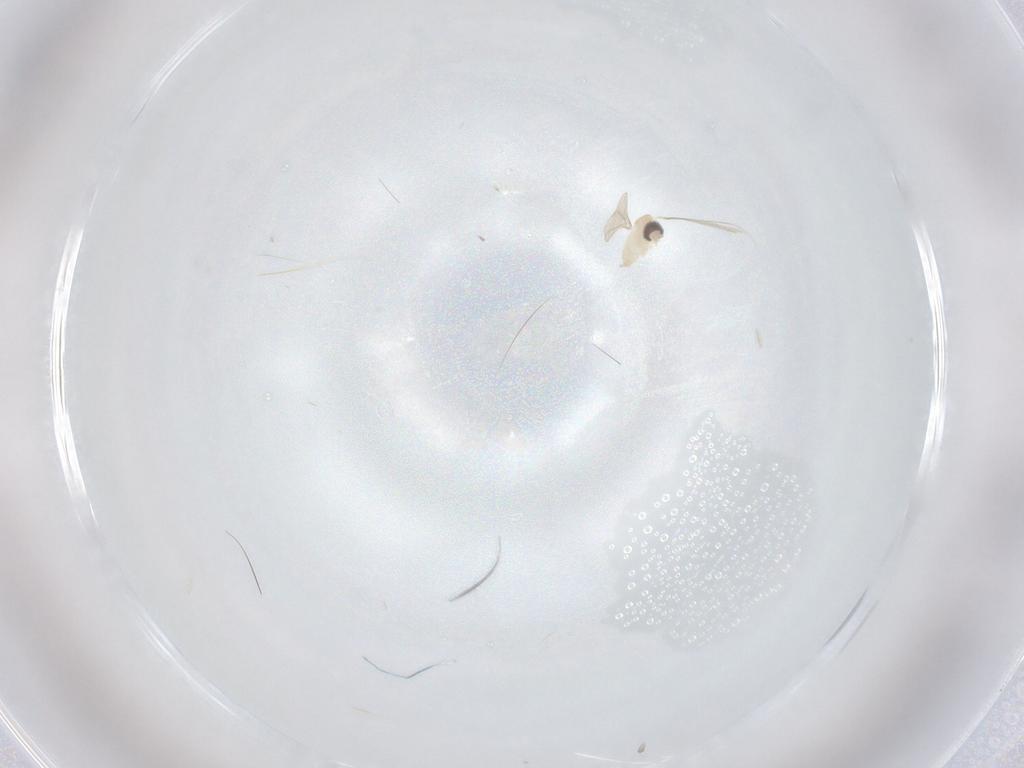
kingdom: Animalia
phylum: Arthropoda
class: Insecta
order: Diptera
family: Cecidomyiidae
